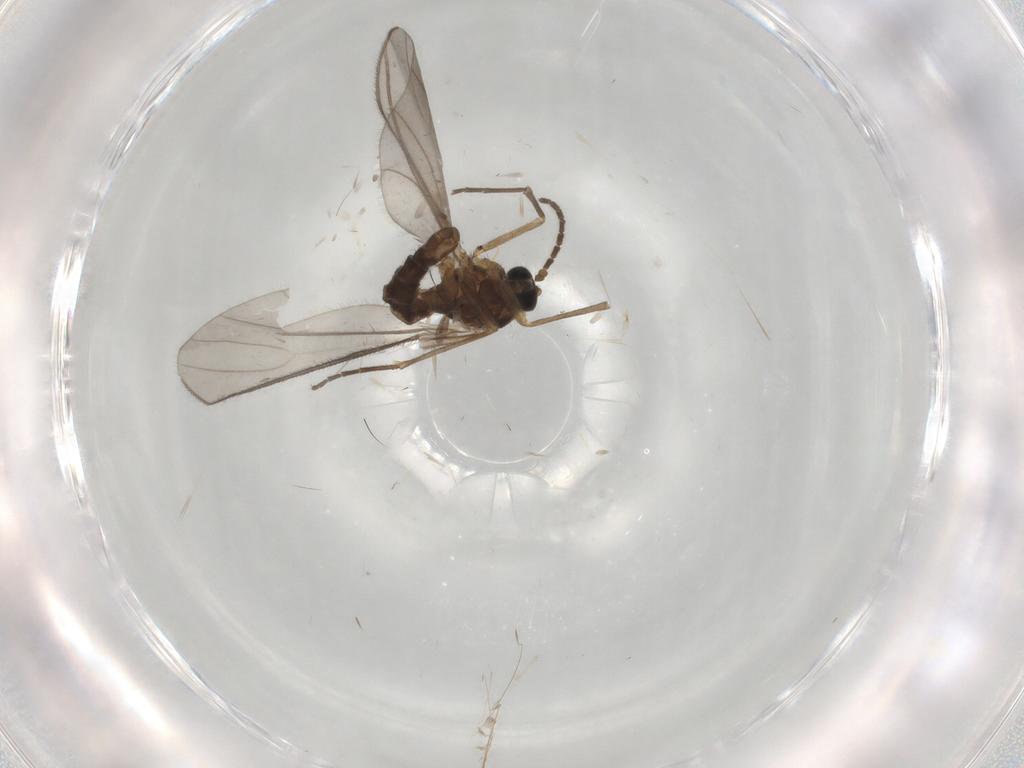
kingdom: Animalia
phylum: Arthropoda
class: Insecta
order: Diptera
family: Sciaridae
